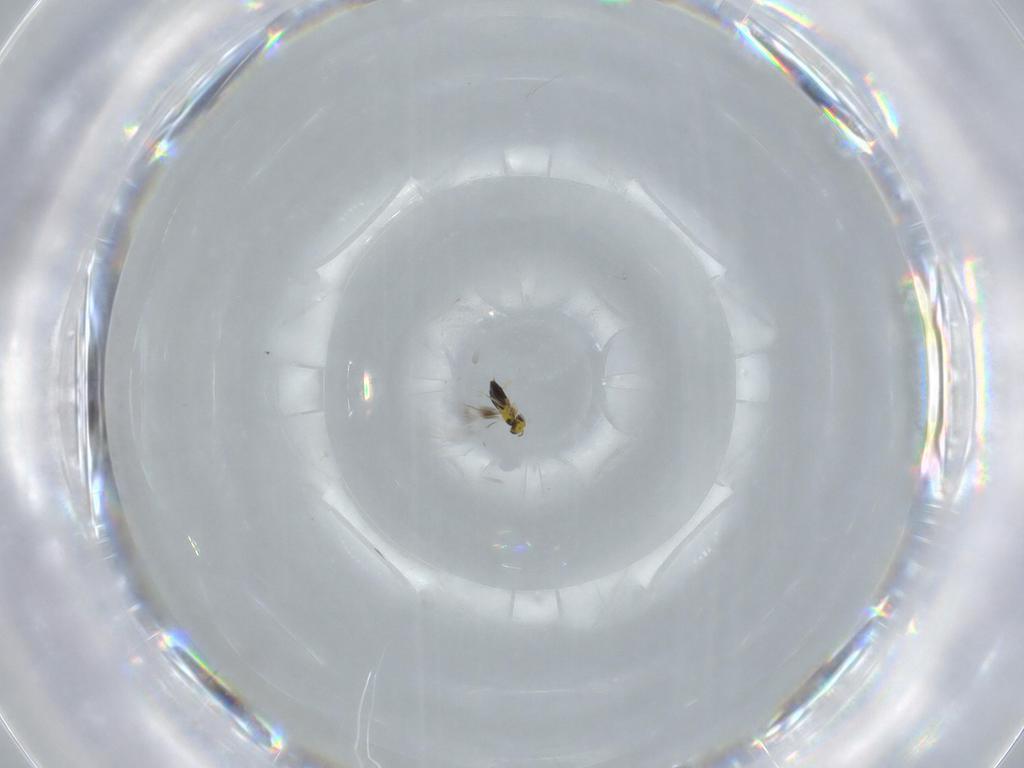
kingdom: Animalia
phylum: Arthropoda
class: Insecta
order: Hymenoptera
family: Signiphoridae
